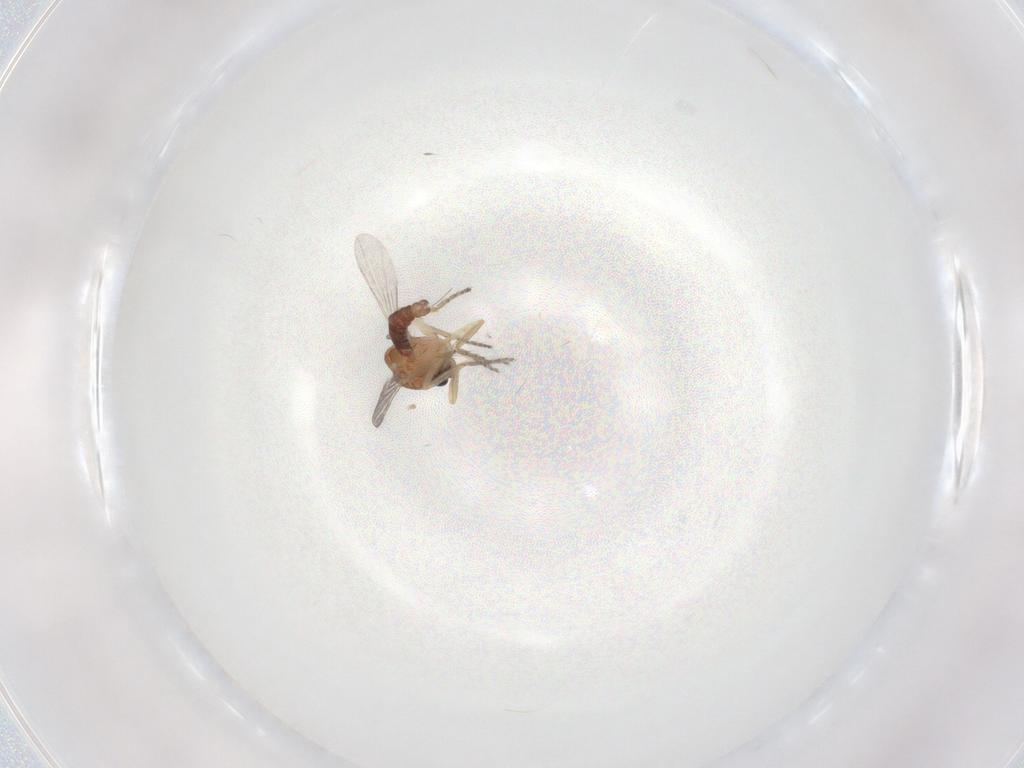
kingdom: Animalia
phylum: Arthropoda
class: Insecta
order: Diptera
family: Ceratopogonidae
